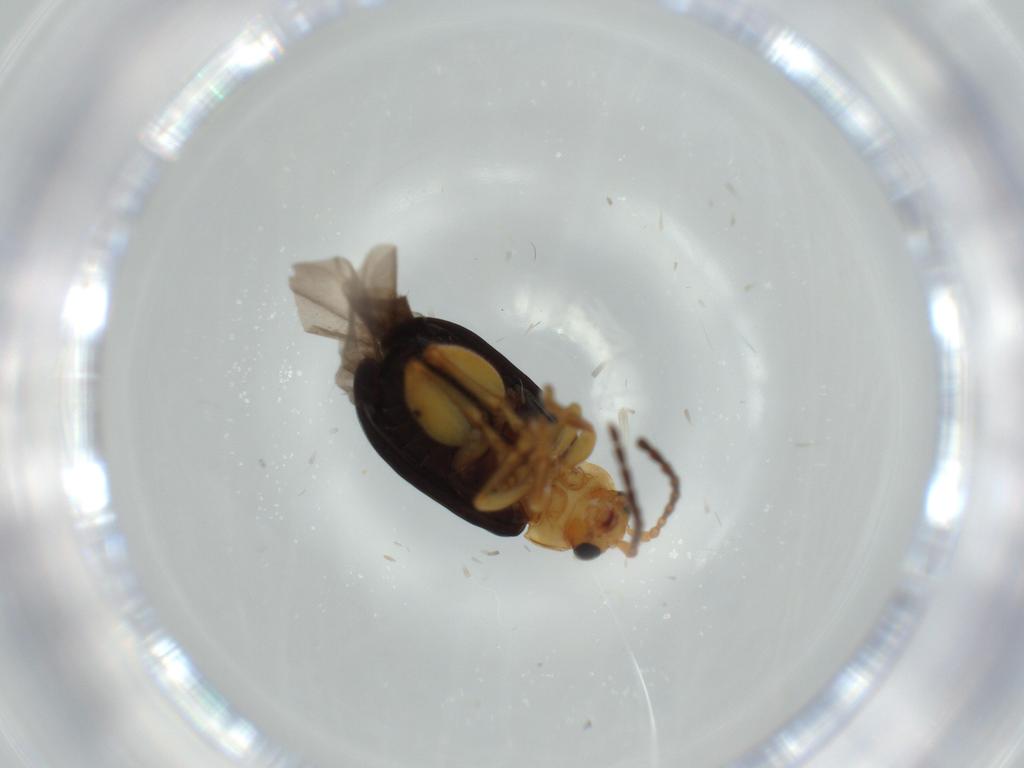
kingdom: Animalia
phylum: Arthropoda
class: Insecta
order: Coleoptera
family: Chrysomelidae
